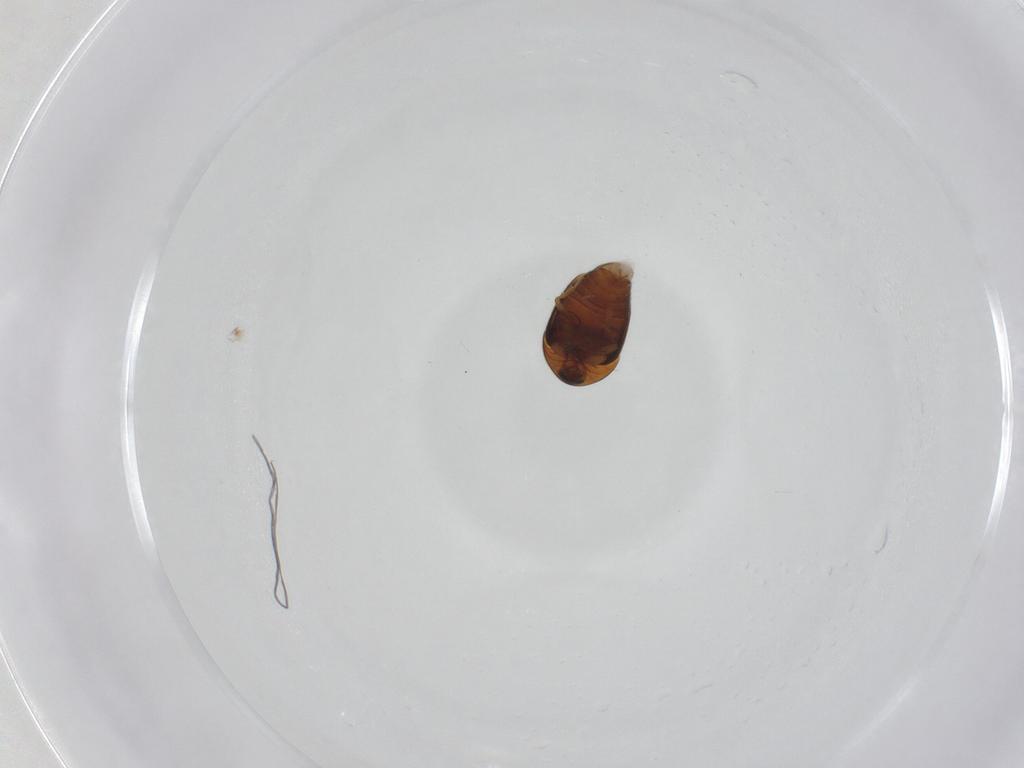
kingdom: Animalia
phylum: Arthropoda
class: Insecta
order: Coleoptera
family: Corylophidae
